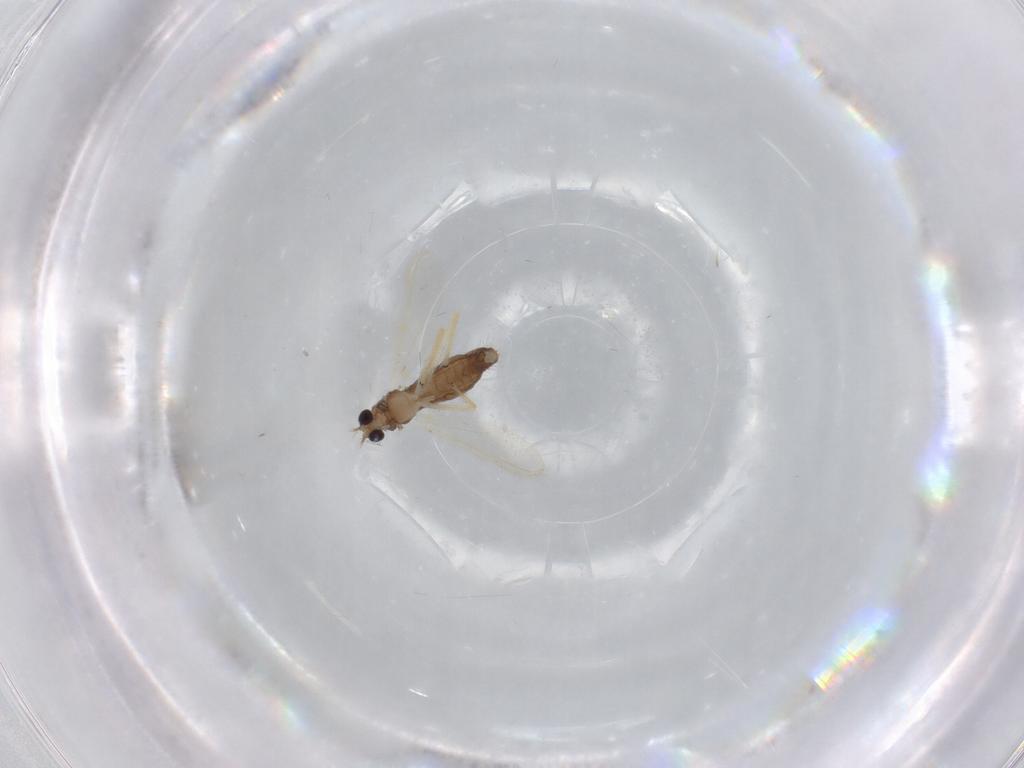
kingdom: Animalia
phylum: Arthropoda
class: Insecta
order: Diptera
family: Chironomidae
